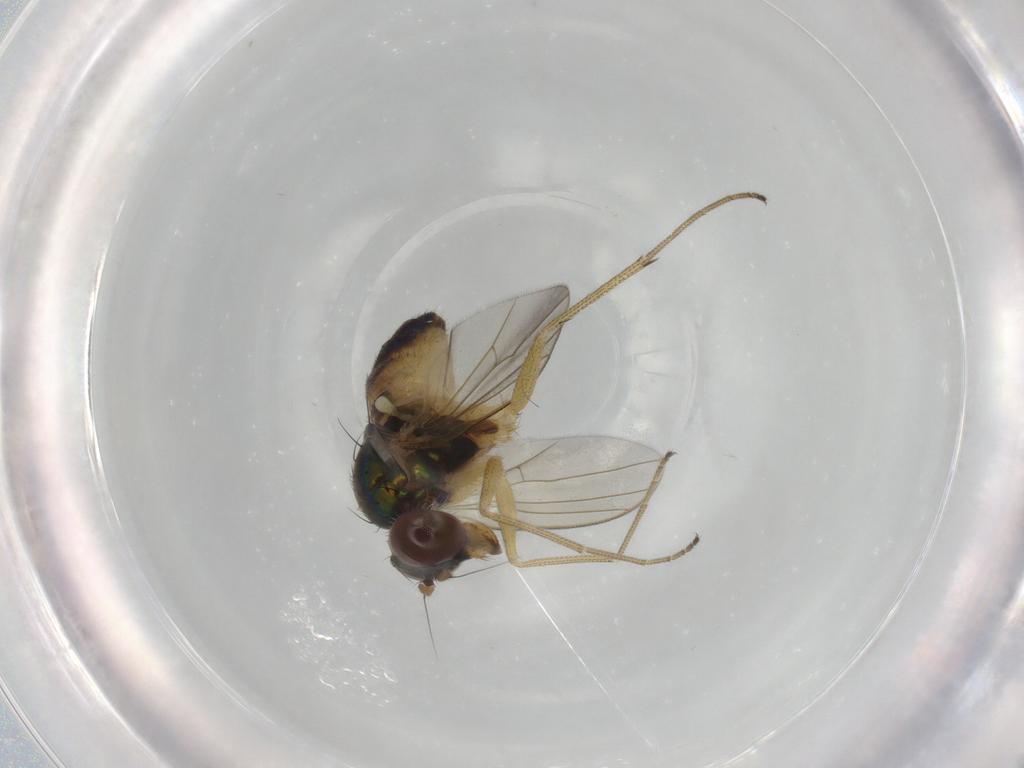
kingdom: Animalia
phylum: Arthropoda
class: Insecta
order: Diptera
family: Dolichopodidae
